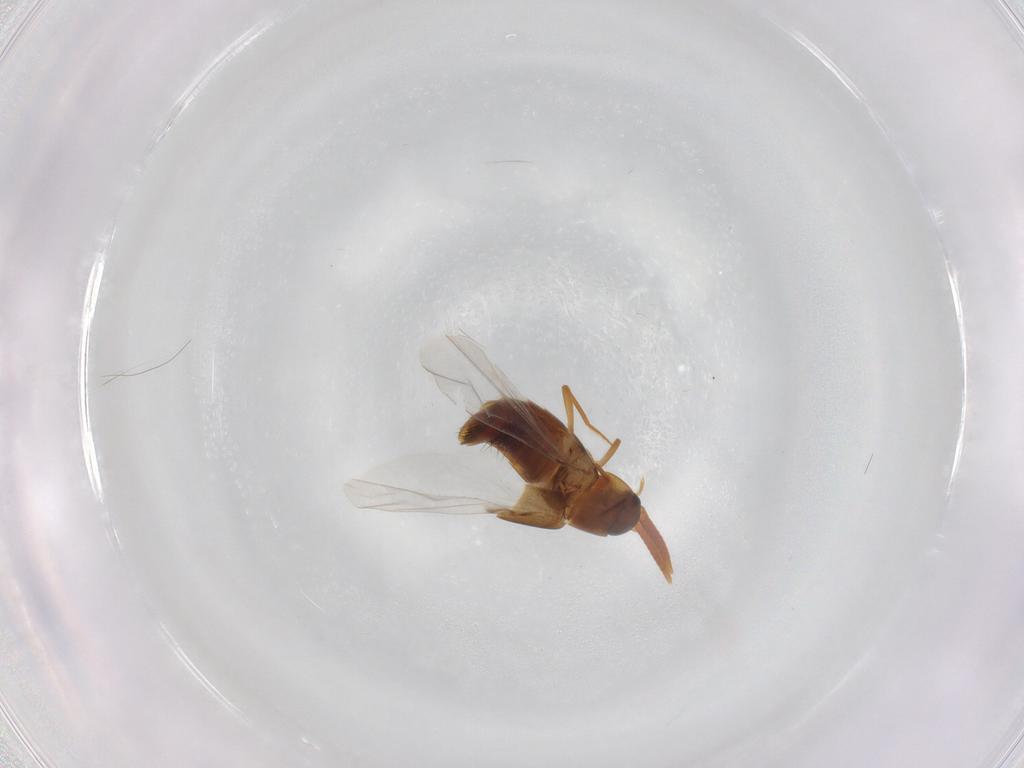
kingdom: Animalia
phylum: Arthropoda
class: Insecta
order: Coleoptera
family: Staphylinidae
